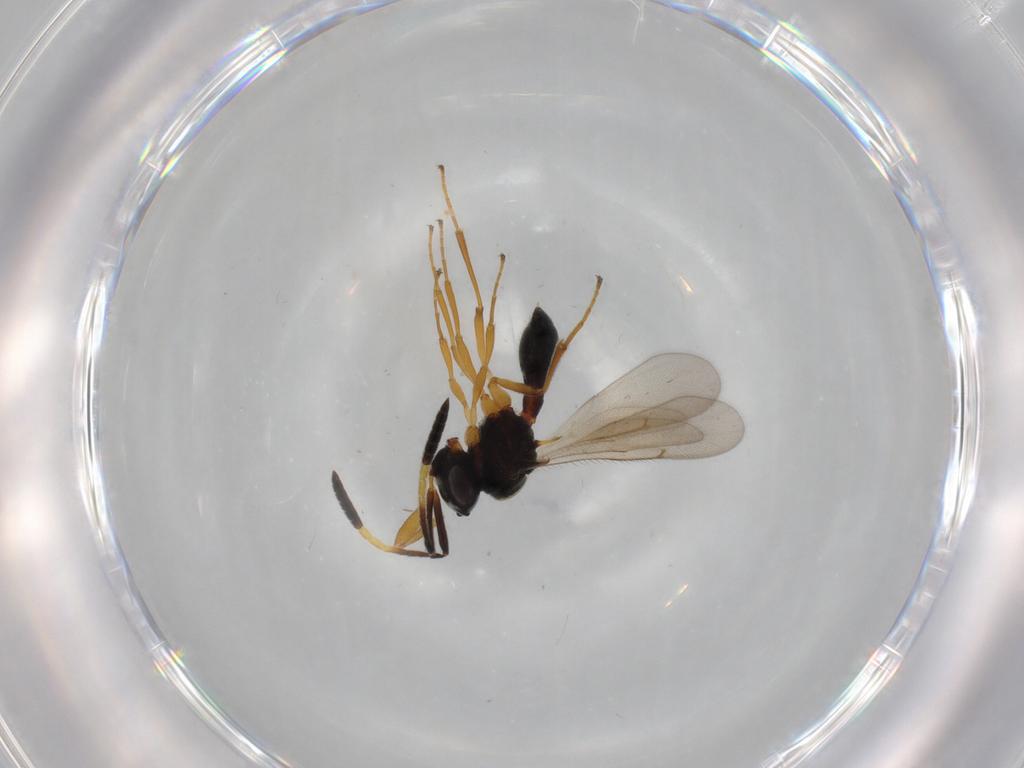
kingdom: Animalia
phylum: Arthropoda
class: Insecta
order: Hymenoptera
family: Scelionidae
